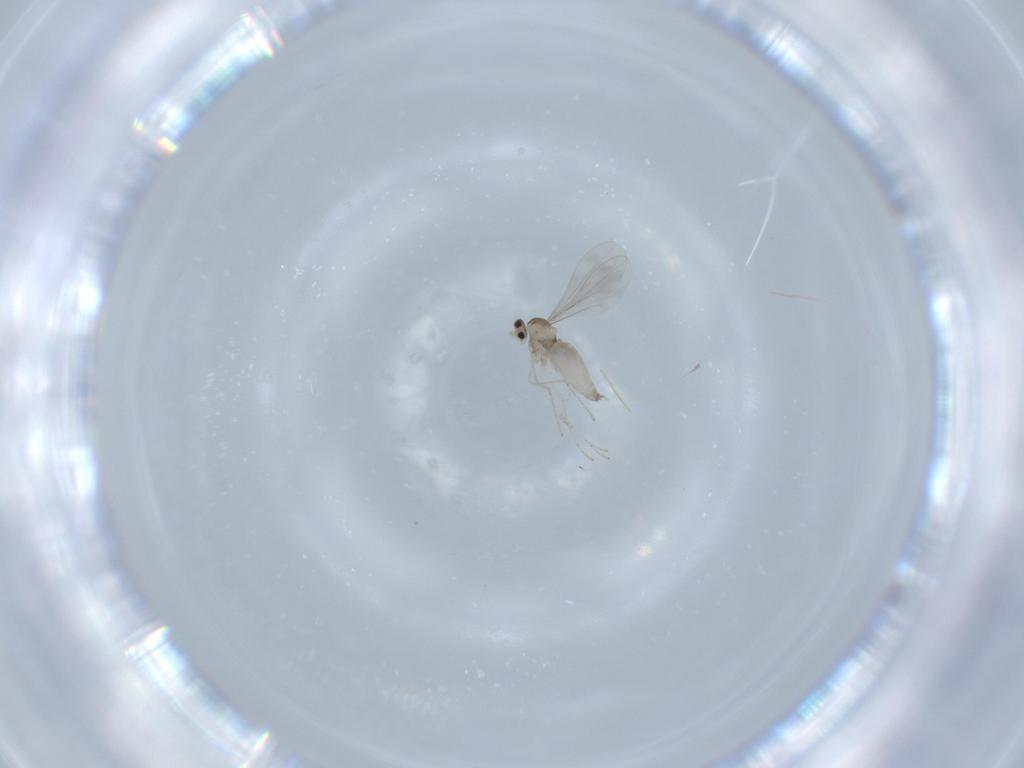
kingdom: Animalia
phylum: Arthropoda
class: Insecta
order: Diptera
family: Cecidomyiidae
